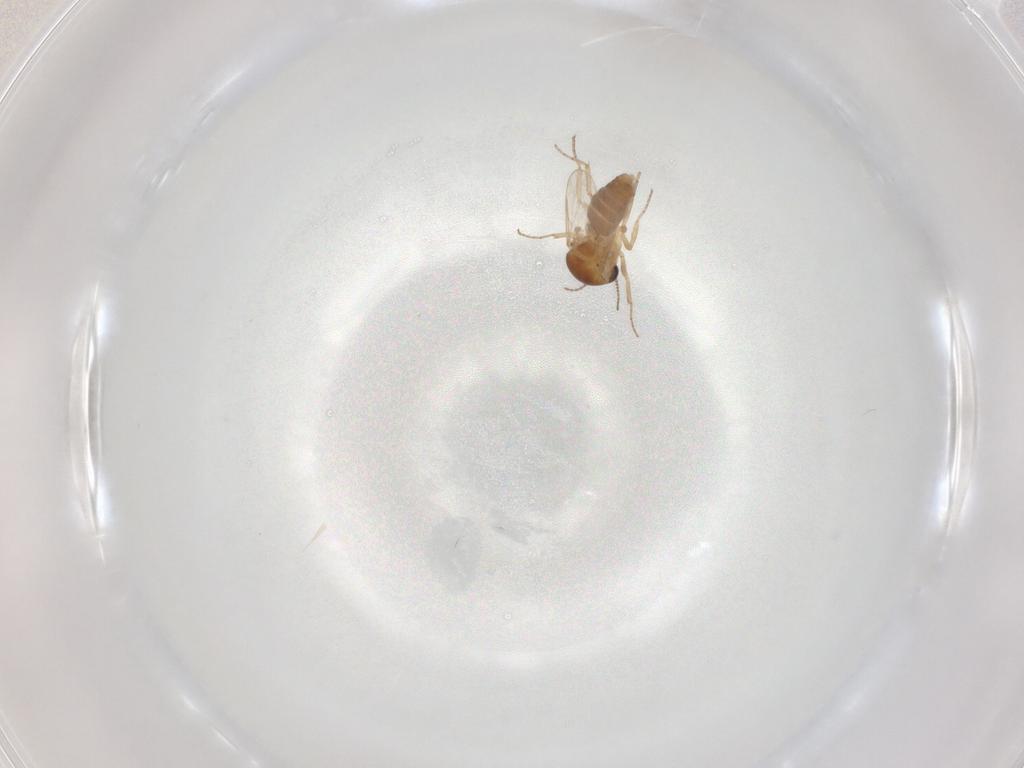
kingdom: Animalia
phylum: Arthropoda
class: Insecta
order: Diptera
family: Ceratopogonidae
